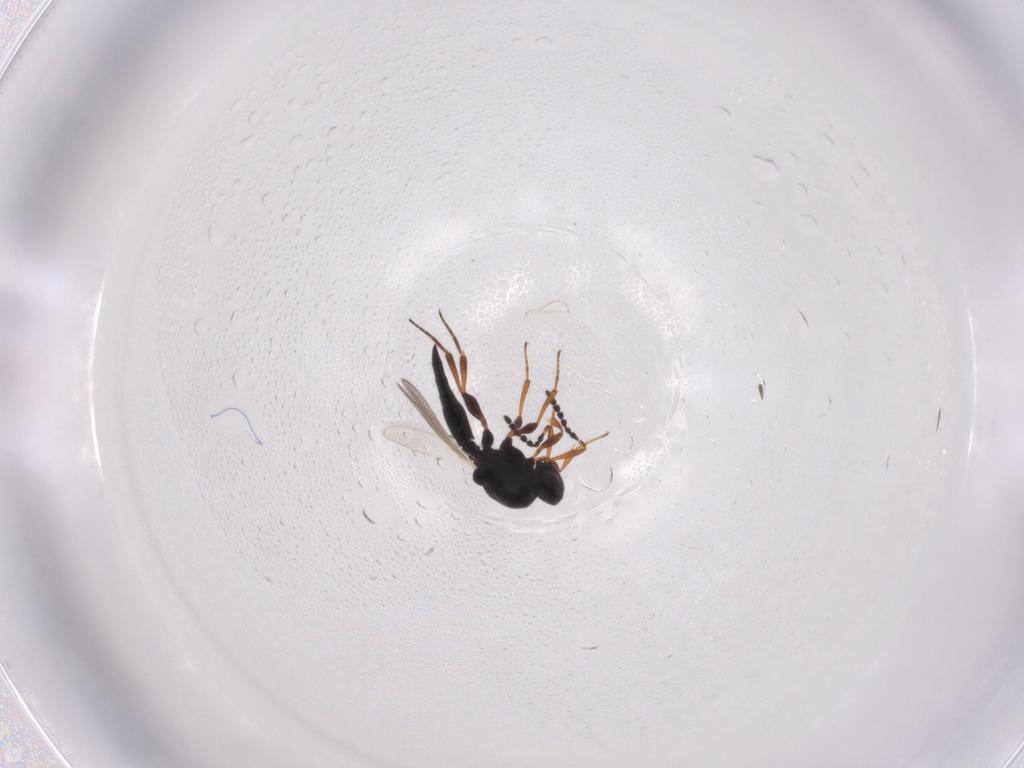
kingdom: Animalia
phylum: Arthropoda
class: Insecta
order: Hymenoptera
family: Platygastridae
